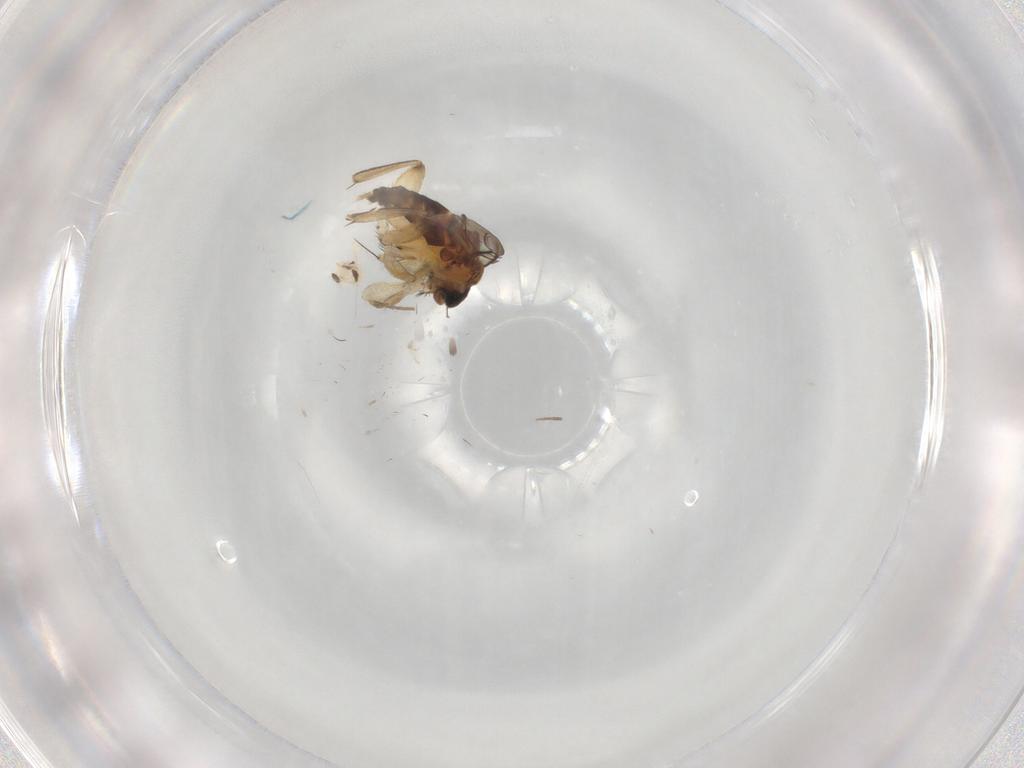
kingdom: Animalia
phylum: Arthropoda
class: Insecta
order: Diptera
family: Phoridae
